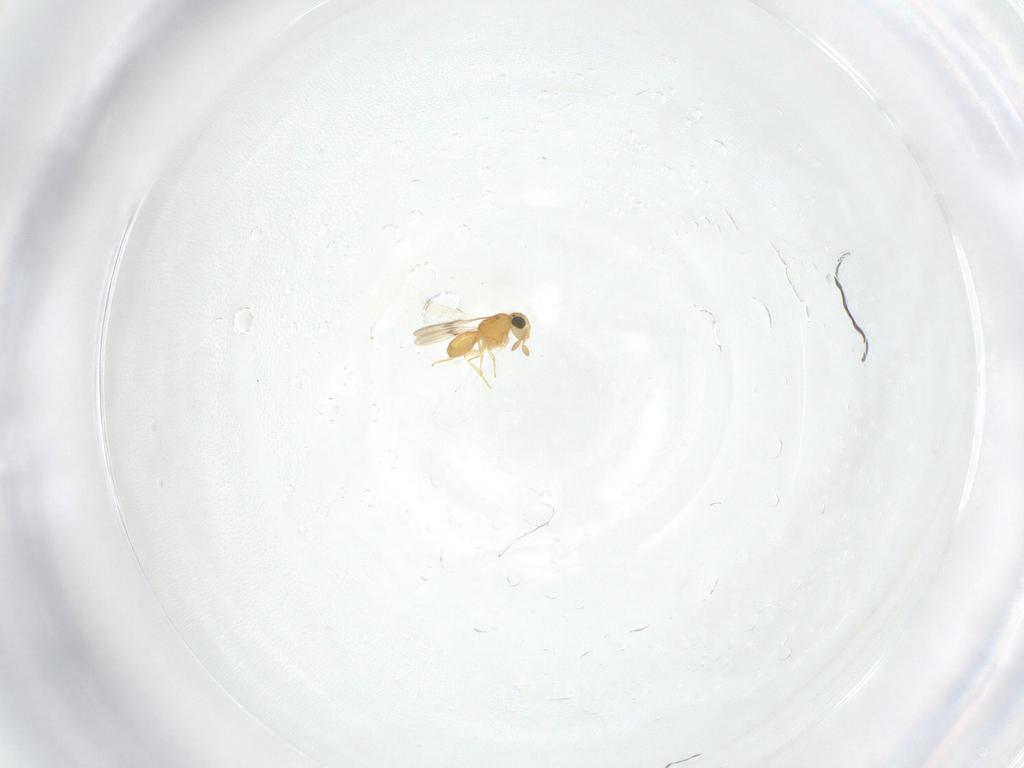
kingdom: Animalia
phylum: Arthropoda
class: Insecta
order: Hymenoptera
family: Scelionidae
